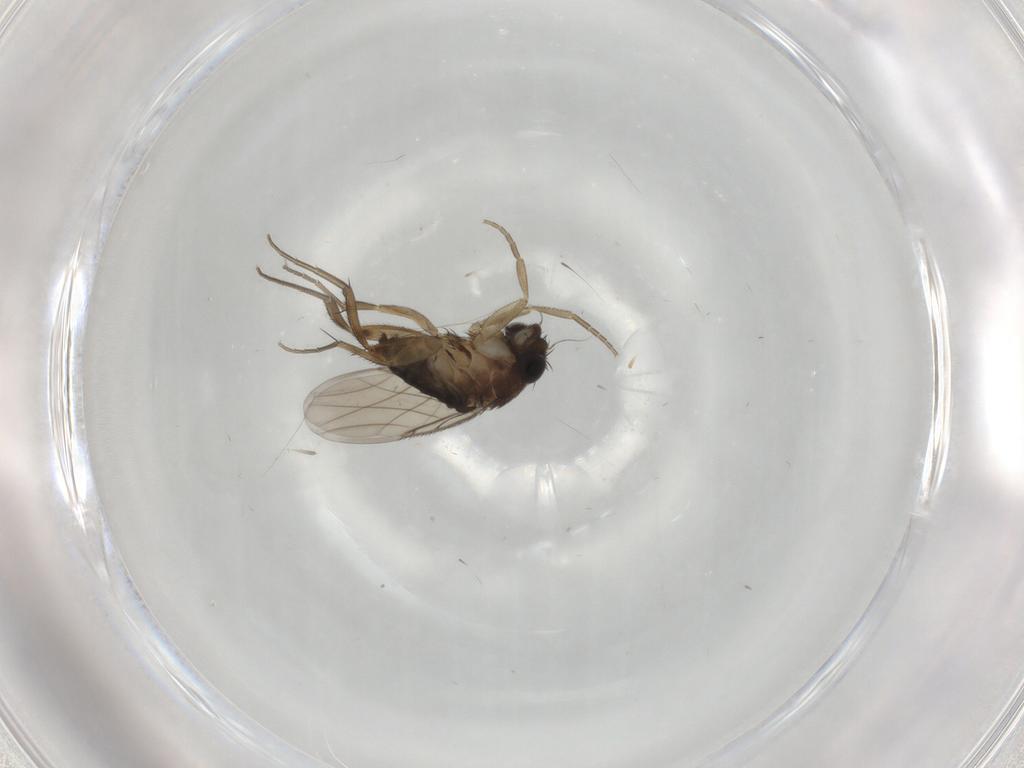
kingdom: Animalia
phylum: Arthropoda
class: Insecta
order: Diptera
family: Phoridae
